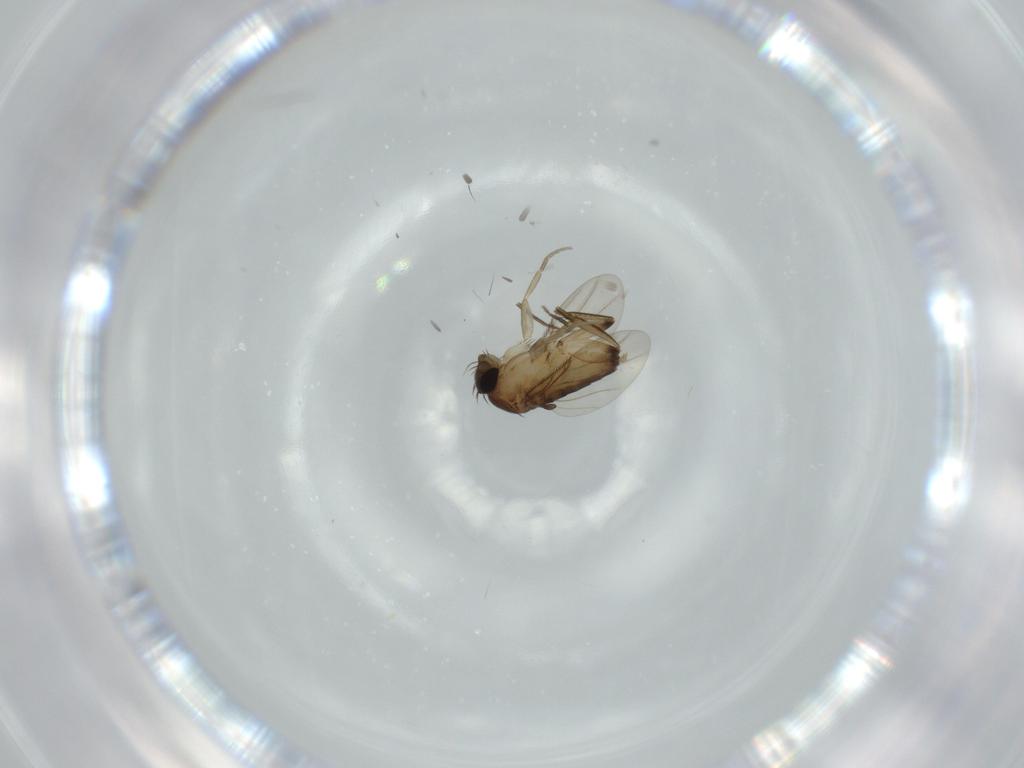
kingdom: Animalia
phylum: Arthropoda
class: Insecta
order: Diptera
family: Phoridae
